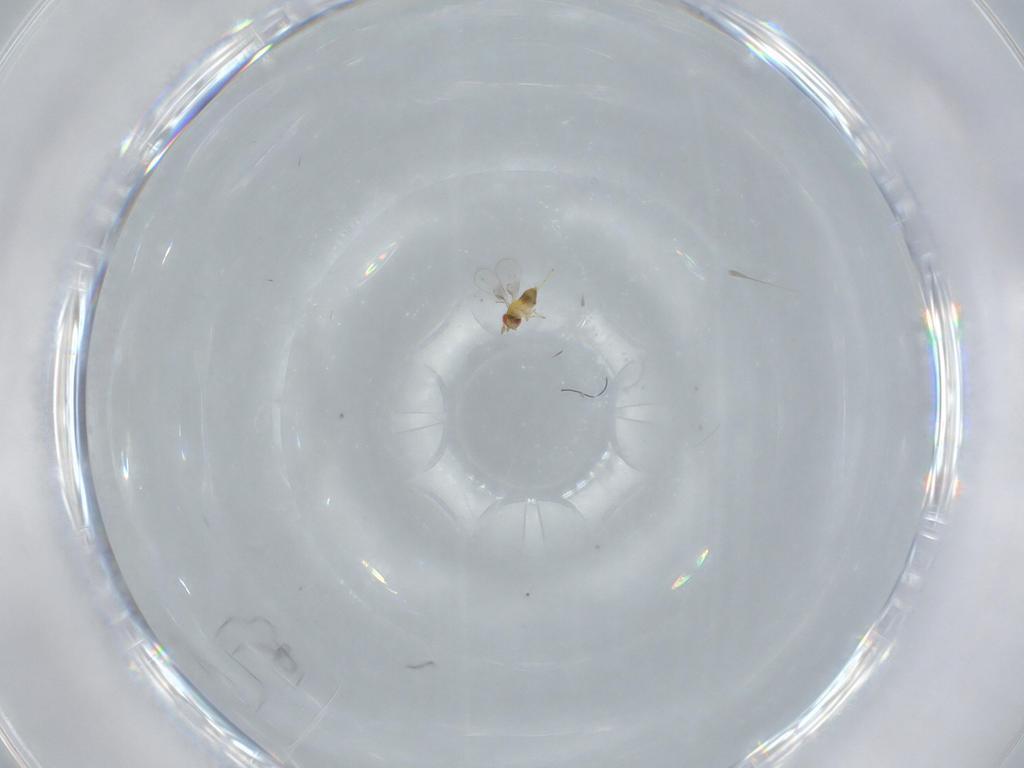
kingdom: Animalia
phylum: Arthropoda
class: Insecta
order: Hymenoptera
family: Trichogrammatidae
